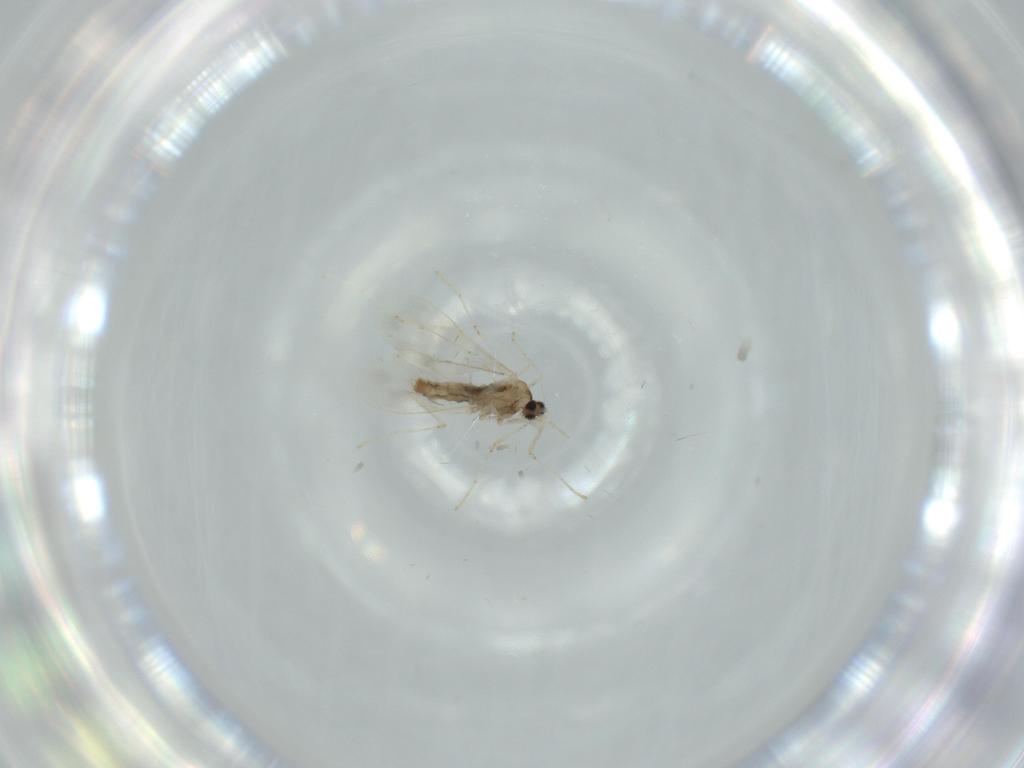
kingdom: Animalia
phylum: Arthropoda
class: Insecta
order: Diptera
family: Cecidomyiidae
